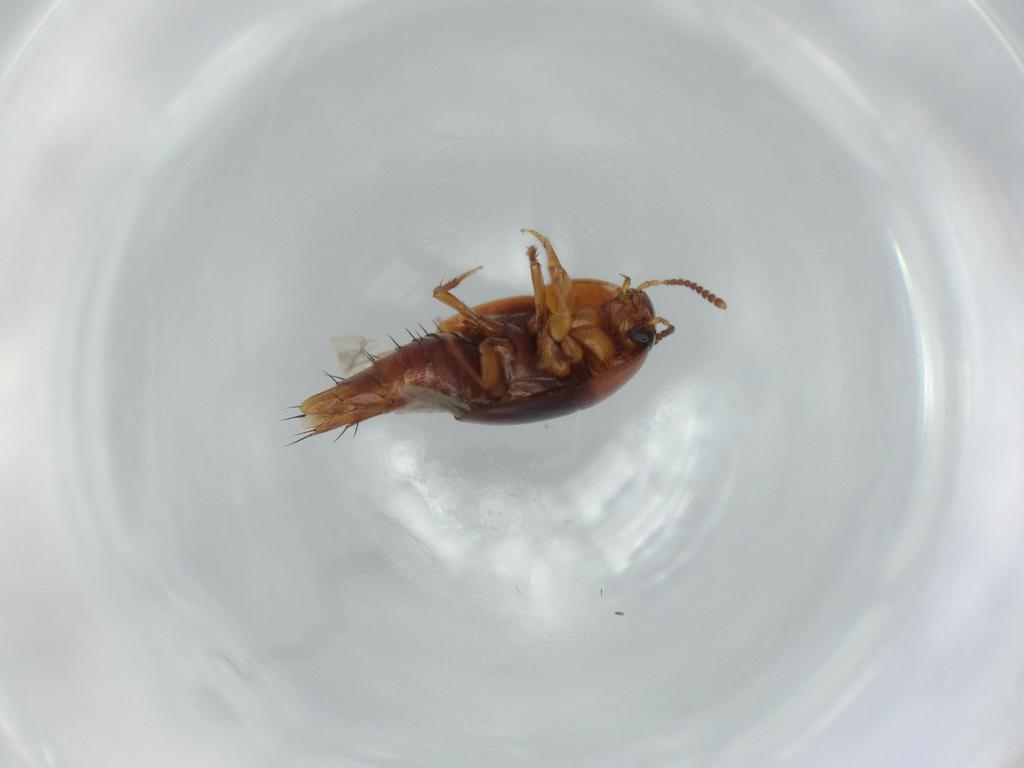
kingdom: Animalia
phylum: Arthropoda
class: Insecta
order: Coleoptera
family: Staphylinidae
